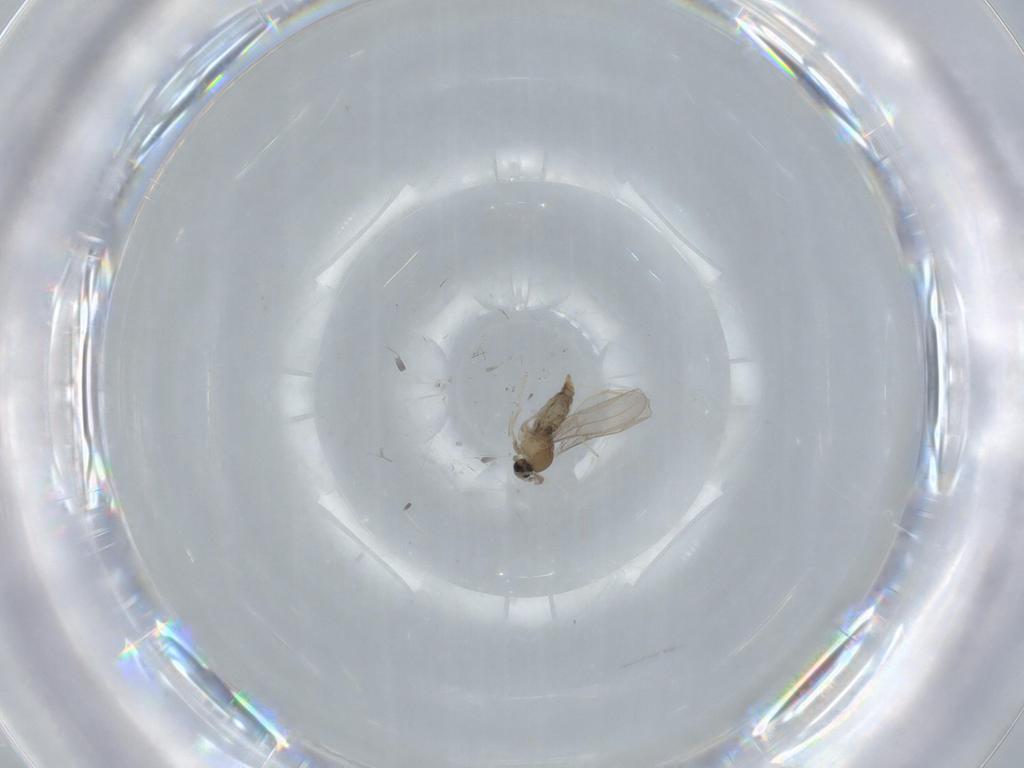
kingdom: Animalia
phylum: Arthropoda
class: Insecta
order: Diptera
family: Cecidomyiidae
